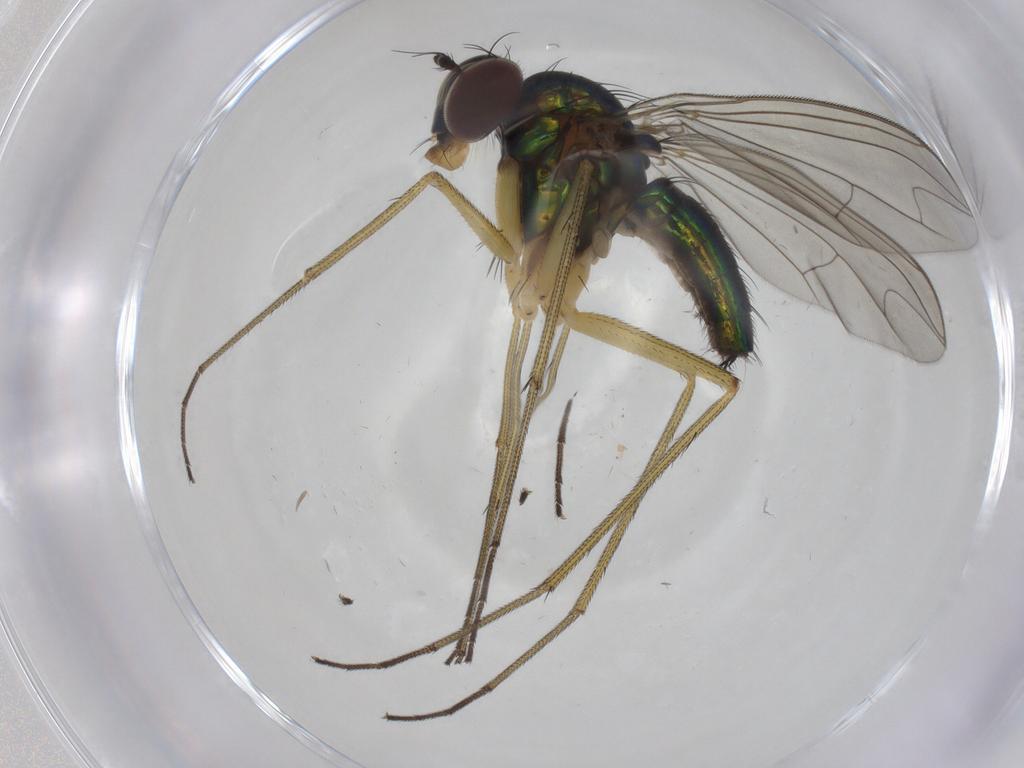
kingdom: Animalia
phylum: Arthropoda
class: Insecta
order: Diptera
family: Dolichopodidae
